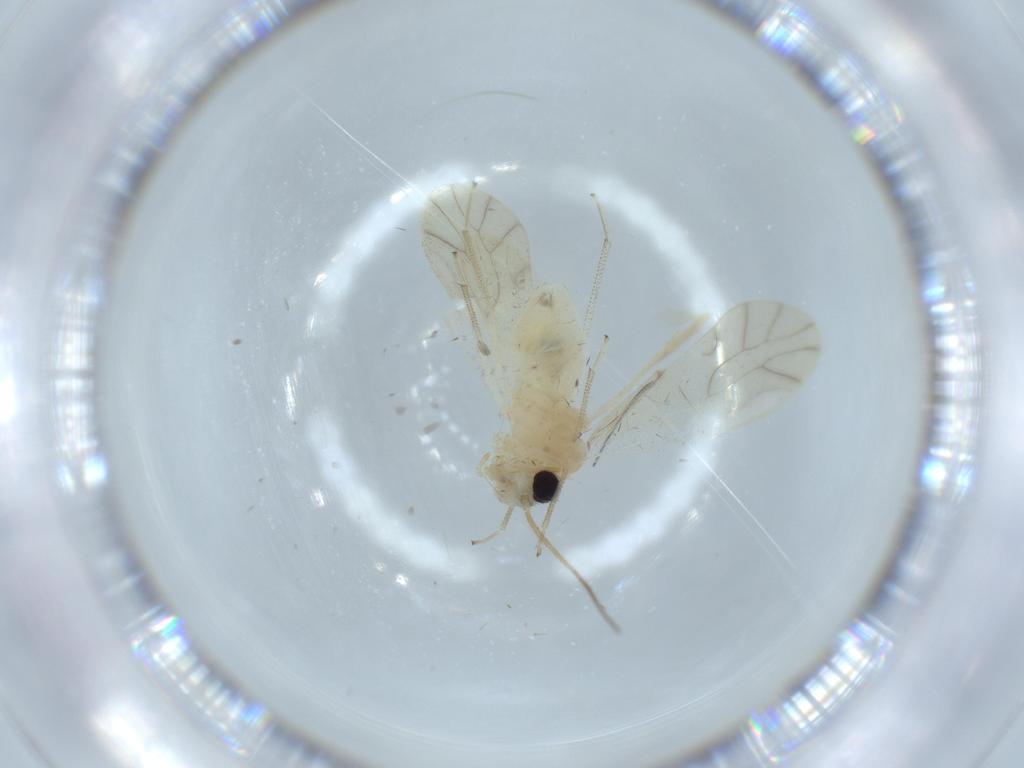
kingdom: Animalia
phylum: Arthropoda
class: Insecta
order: Psocodea
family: Caeciliusidae
